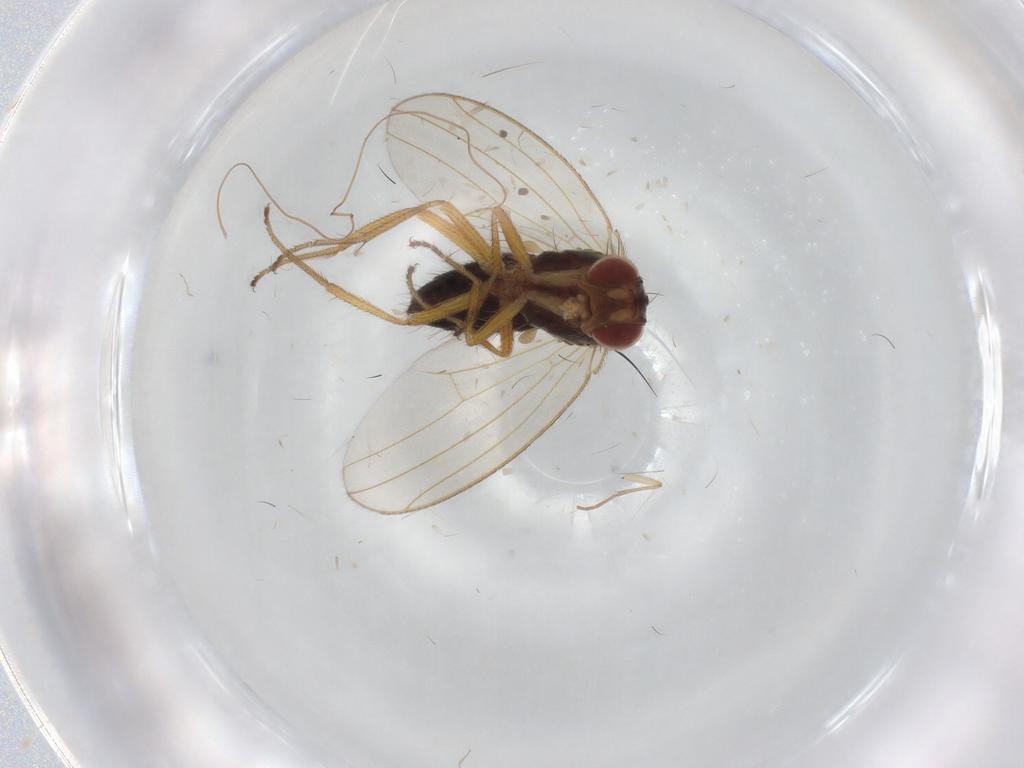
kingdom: Animalia
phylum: Arthropoda
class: Insecta
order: Diptera
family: Drosophilidae
